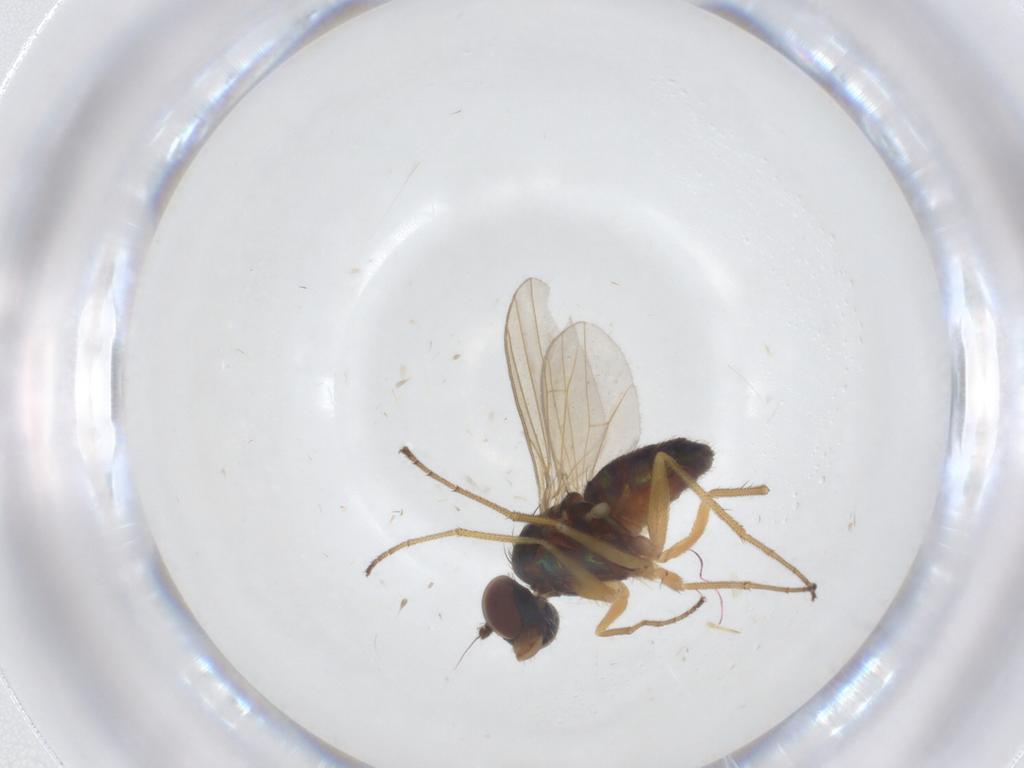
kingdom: Animalia
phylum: Arthropoda
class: Insecta
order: Diptera
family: Dolichopodidae
